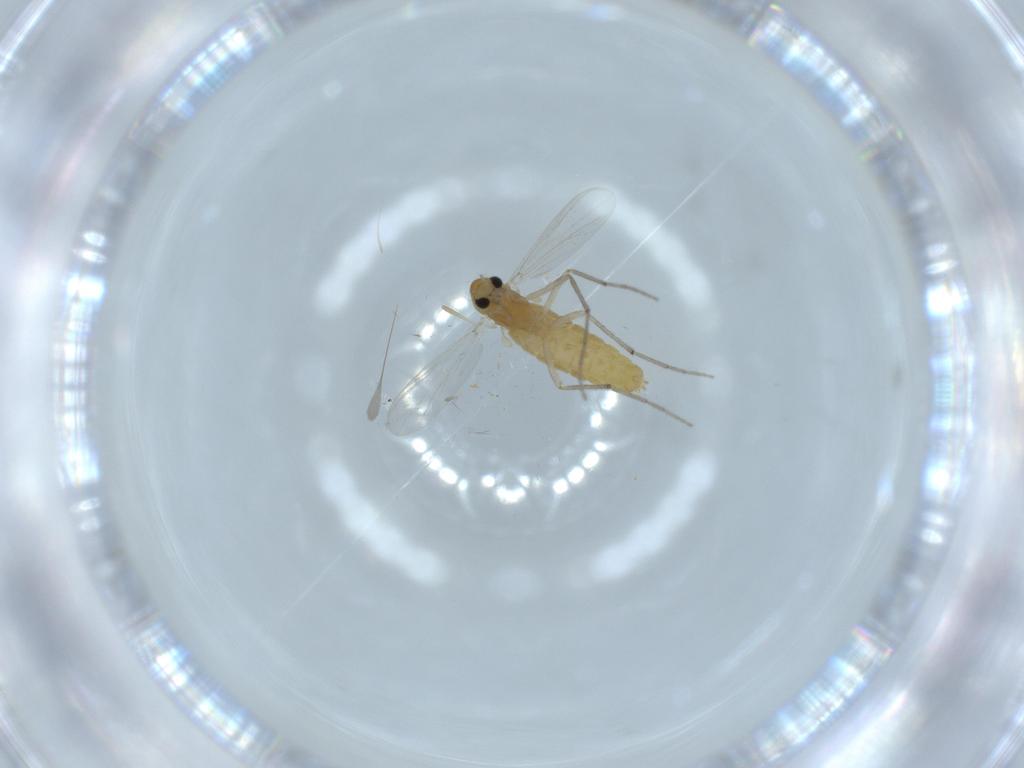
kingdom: Animalia
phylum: Arthropoda
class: Insecta
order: Diptera
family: Chironomidae
